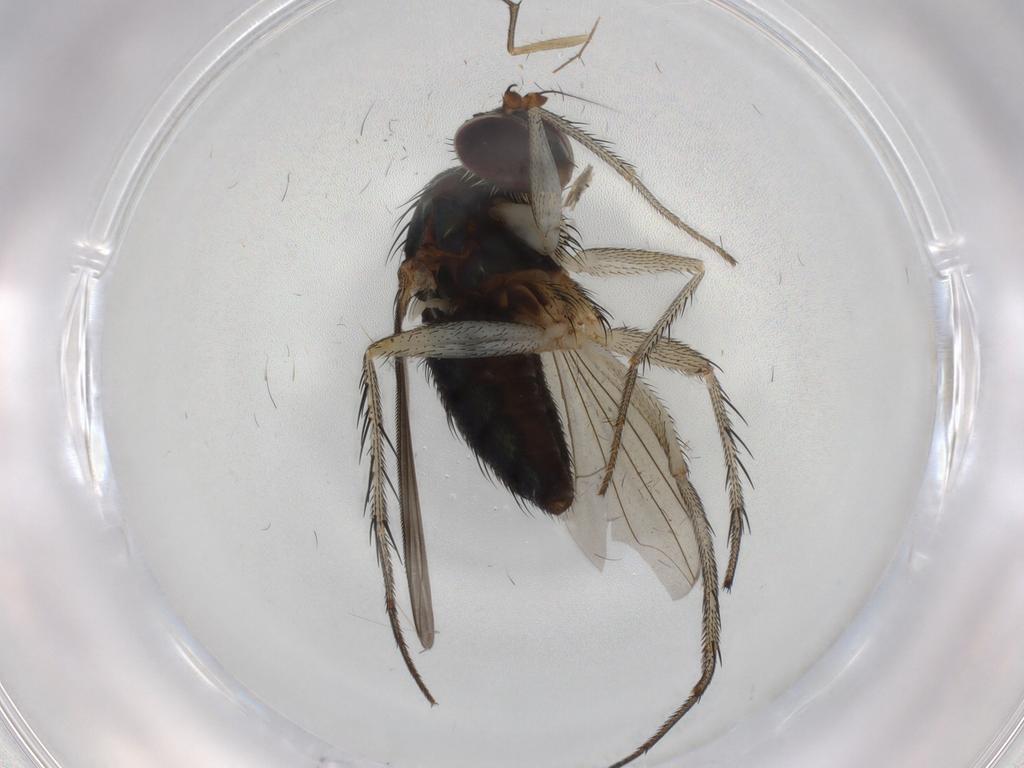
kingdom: Animalia
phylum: Arthropoda
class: Insecta
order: Diptera
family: Dolichopodidae
